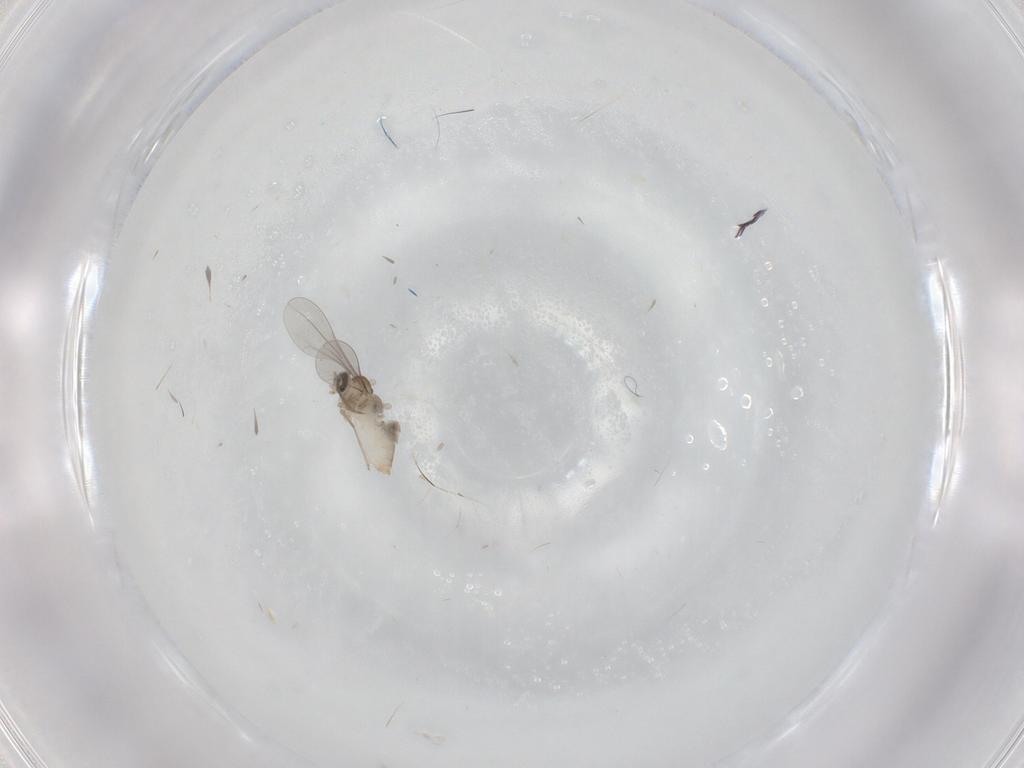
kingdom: Animalia
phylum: Arthropoda
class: Insecta
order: Diptera
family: Cecidomyiidae
